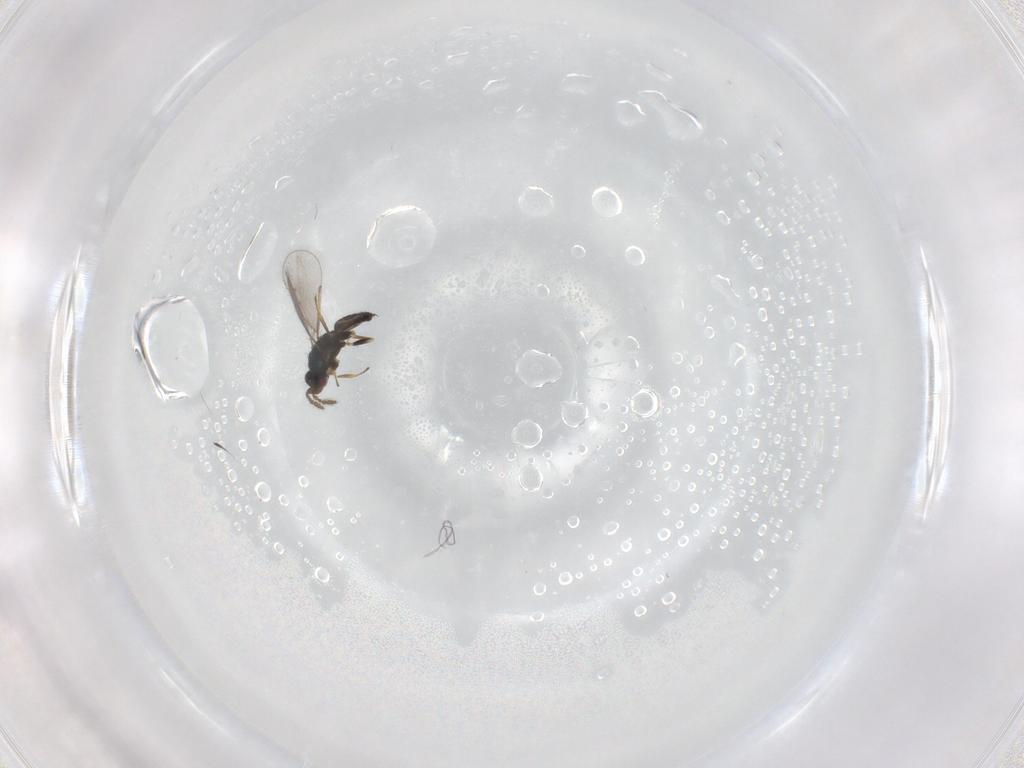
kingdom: Animalia
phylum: Arthropoda
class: Insecta
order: Hymenoptera
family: Eulophidae
